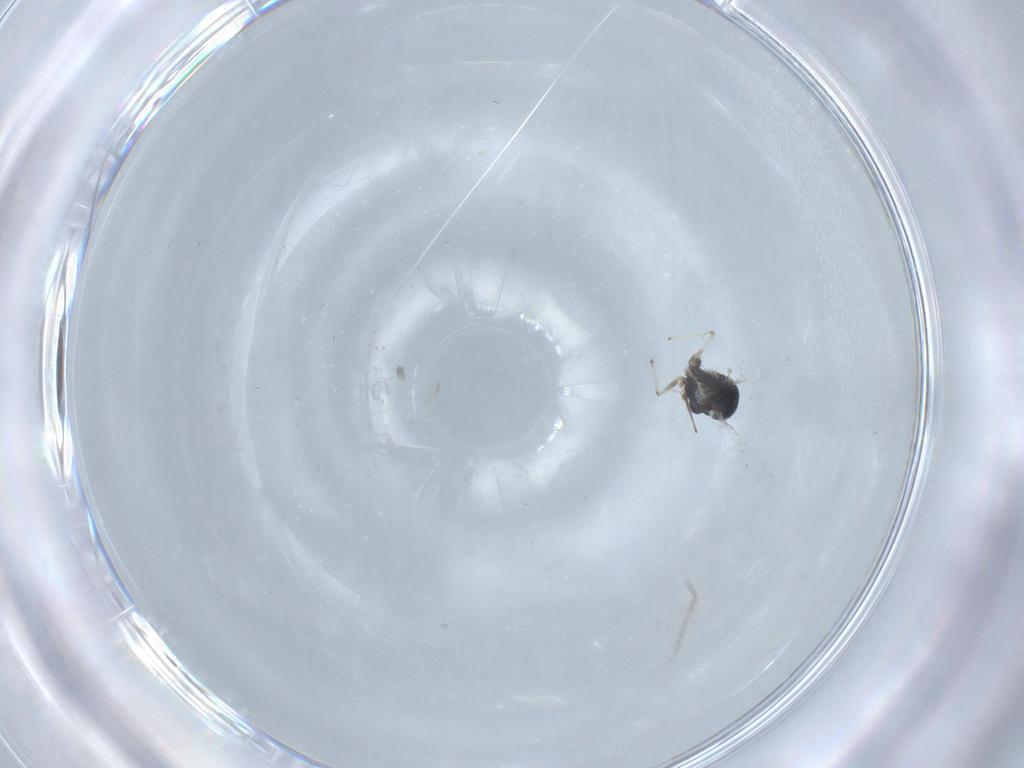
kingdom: Animalia
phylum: Arthropoda
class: Insecta
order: Diptera
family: Chironomidae
